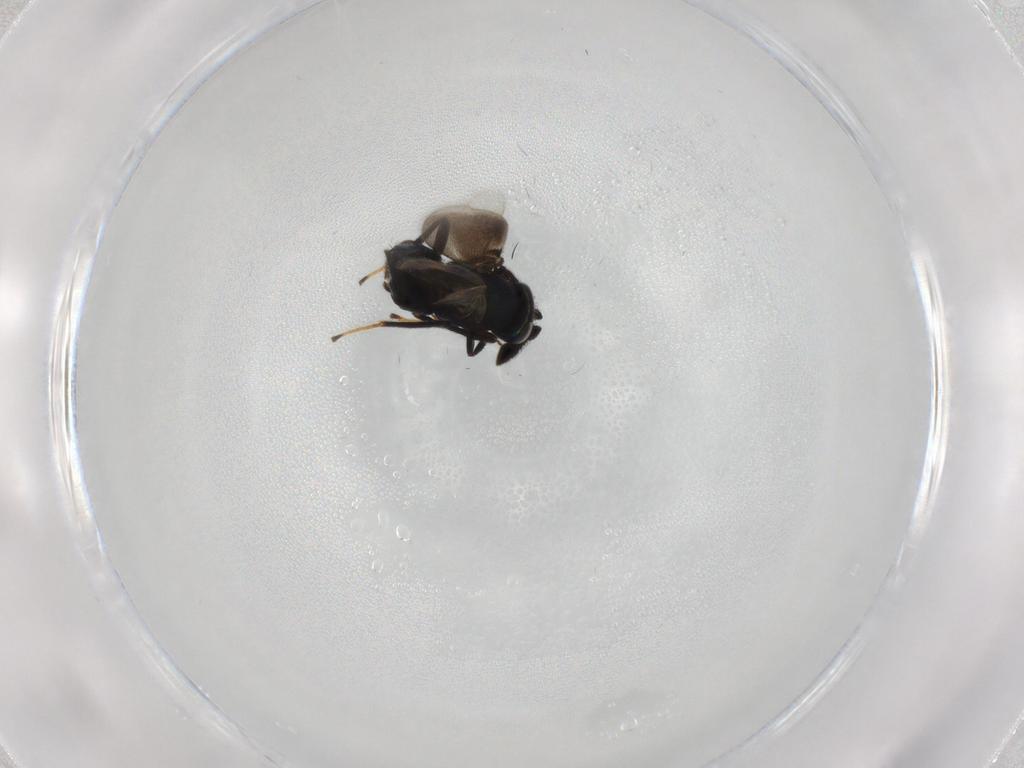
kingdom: Animalia
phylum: Arthropoda
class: Insecta
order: Hymenoptera
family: Encyrtidae
